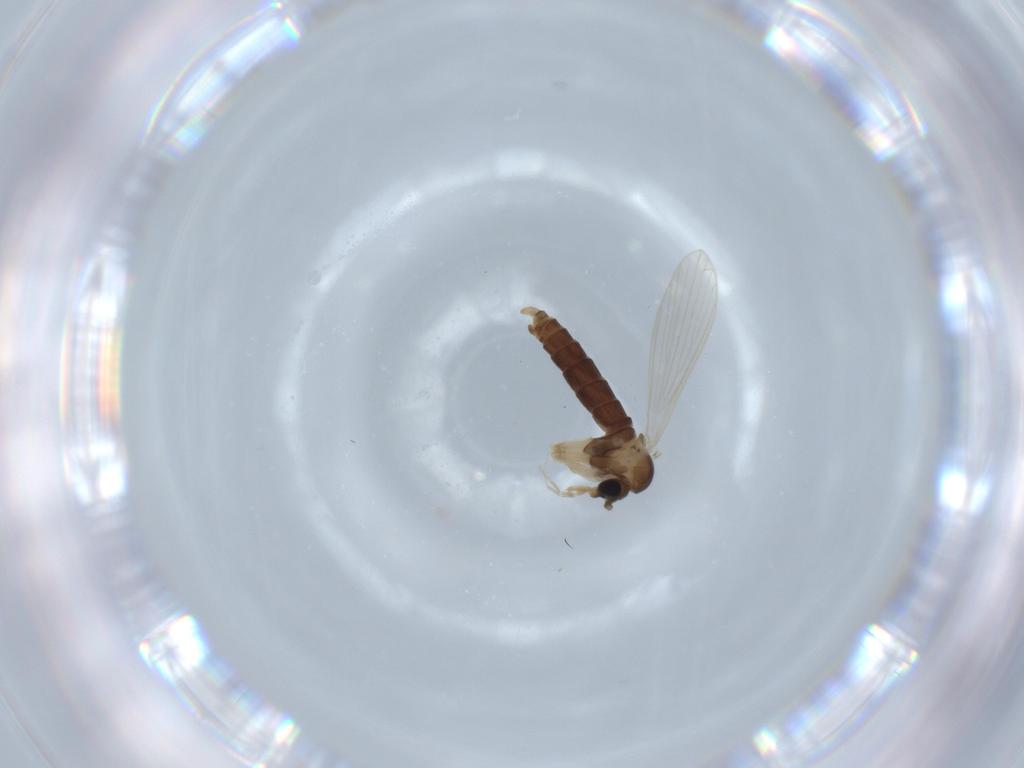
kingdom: Animalia
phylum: Arthropoda
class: Insecta
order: Diptera
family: Psychodidae
